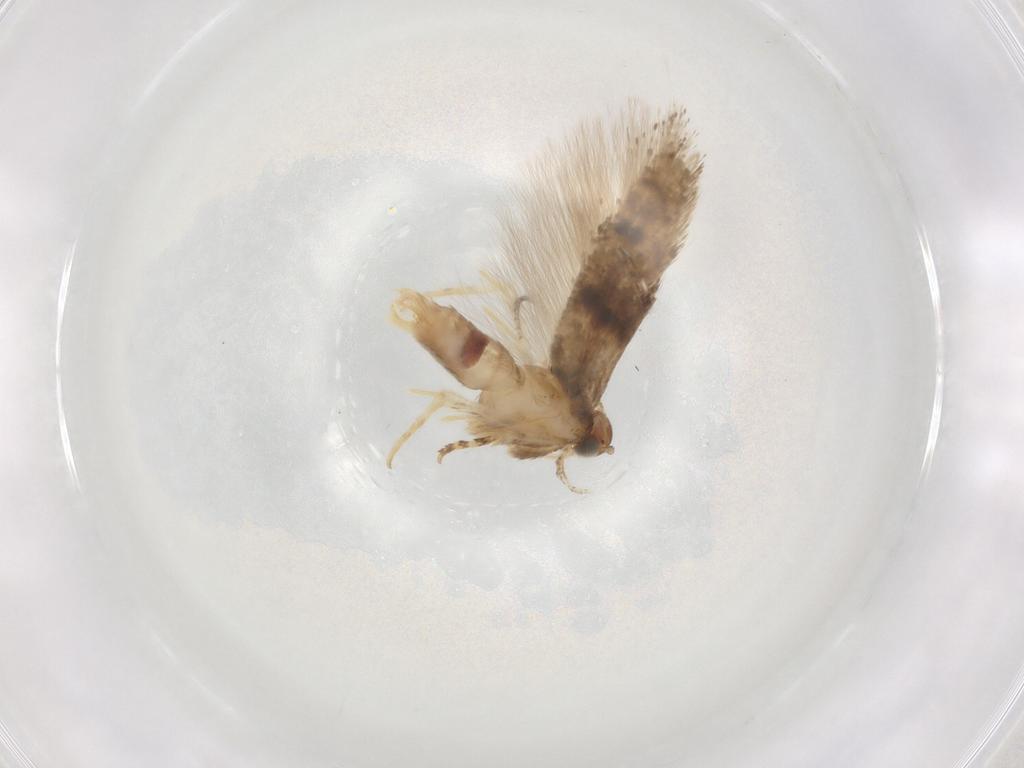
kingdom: Animalia
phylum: Arthropoda
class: Insecta
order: Lepidoptera
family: Gelechiidae
